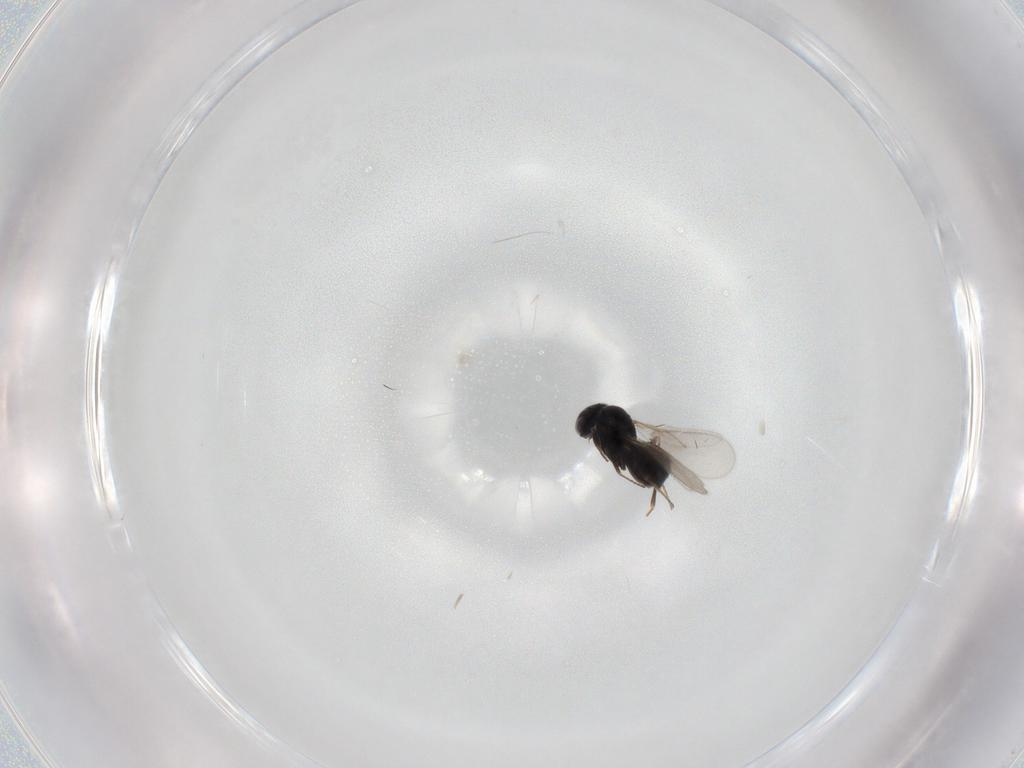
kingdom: Animalia
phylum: Arthropoda
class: Insecta
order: Hymenoptera
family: Scelionidae
